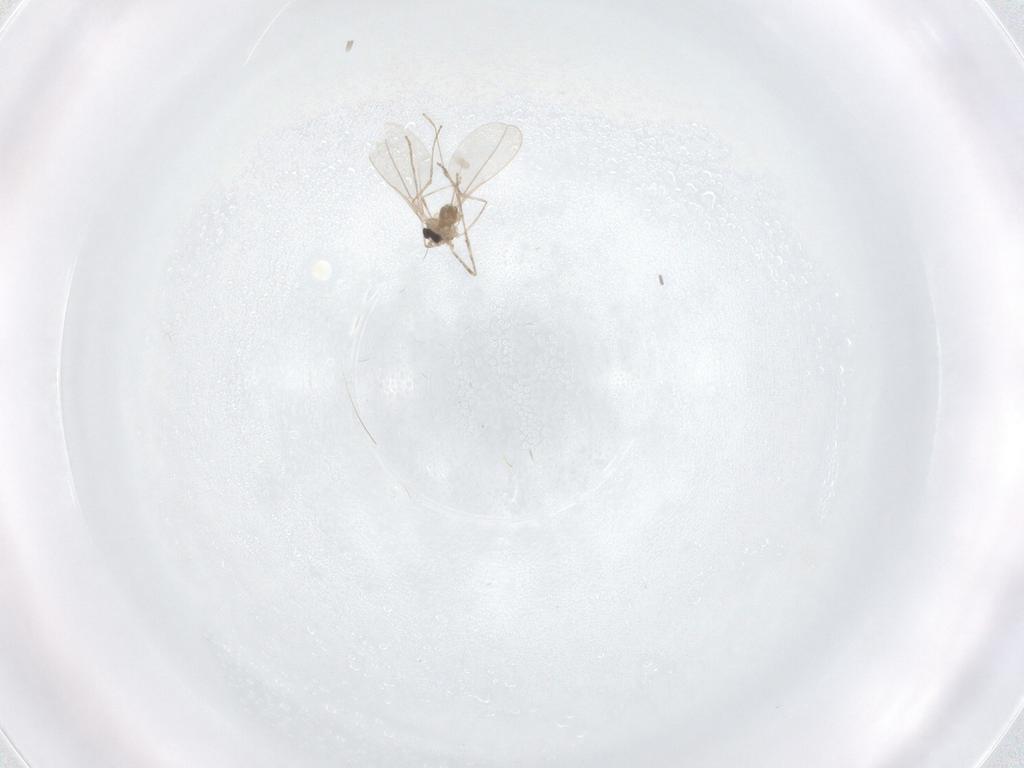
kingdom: Animalia
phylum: Arthropoda
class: Insecta
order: Diptera
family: Cecidomyiidae
